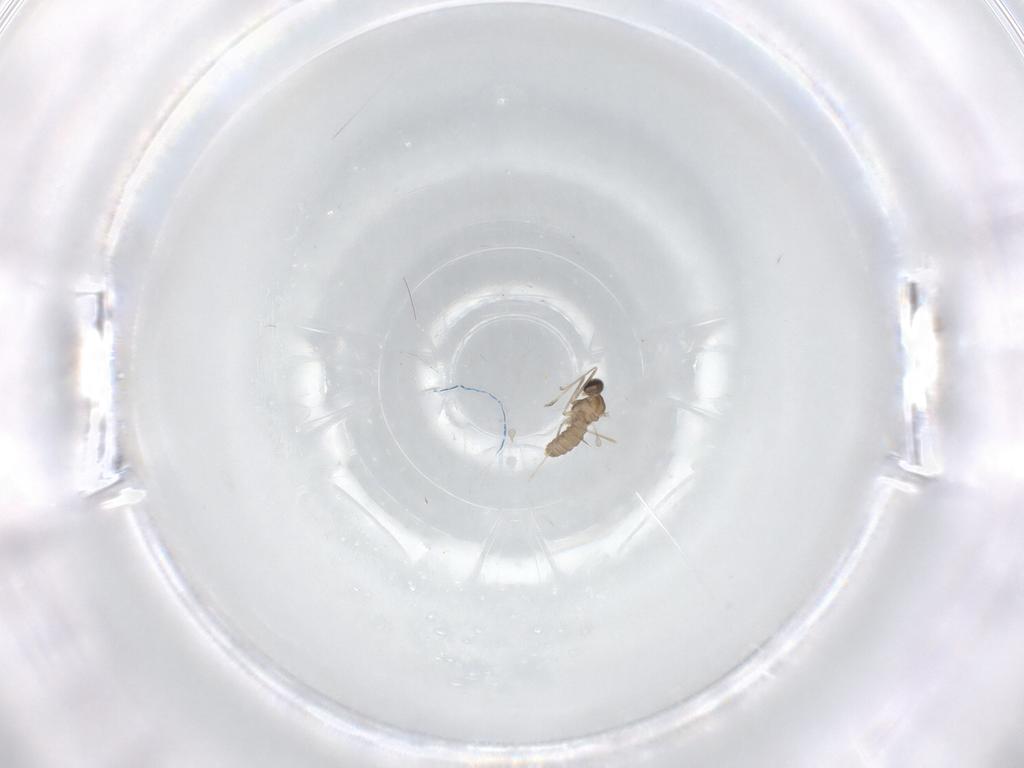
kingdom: Animalia
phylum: Arthropoda
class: Insecta
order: Diptera
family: Cecidomyiidae
